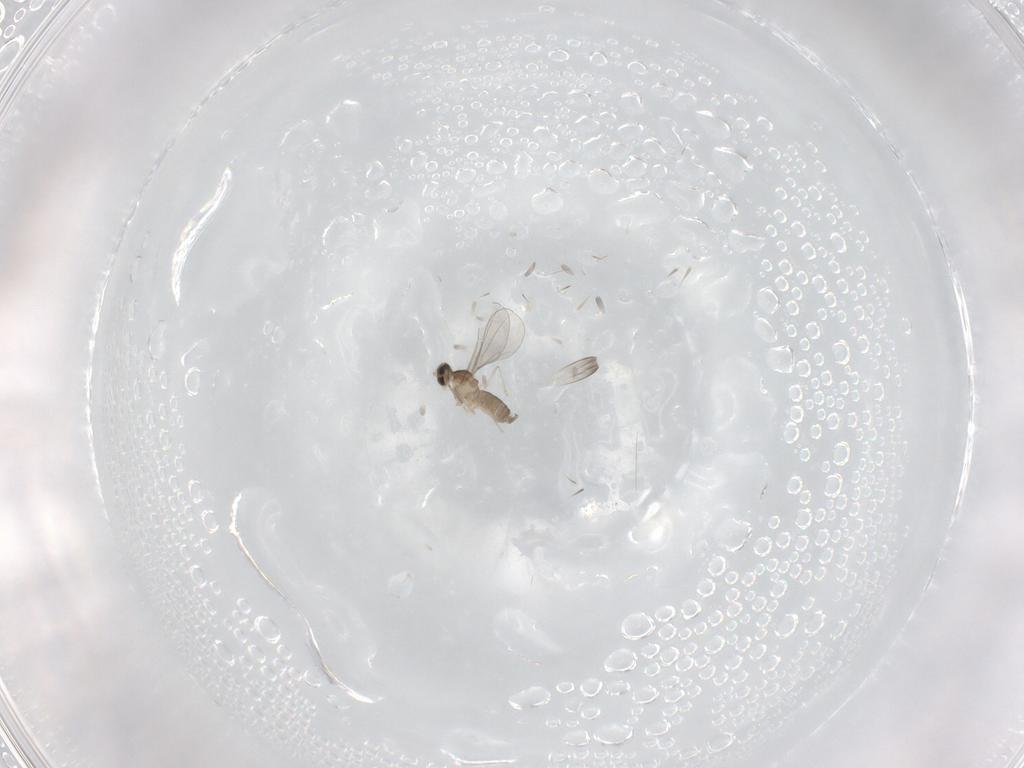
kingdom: Animalia
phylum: Arthropoda
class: Insecta
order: Diptera
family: Cecidomyiidae
